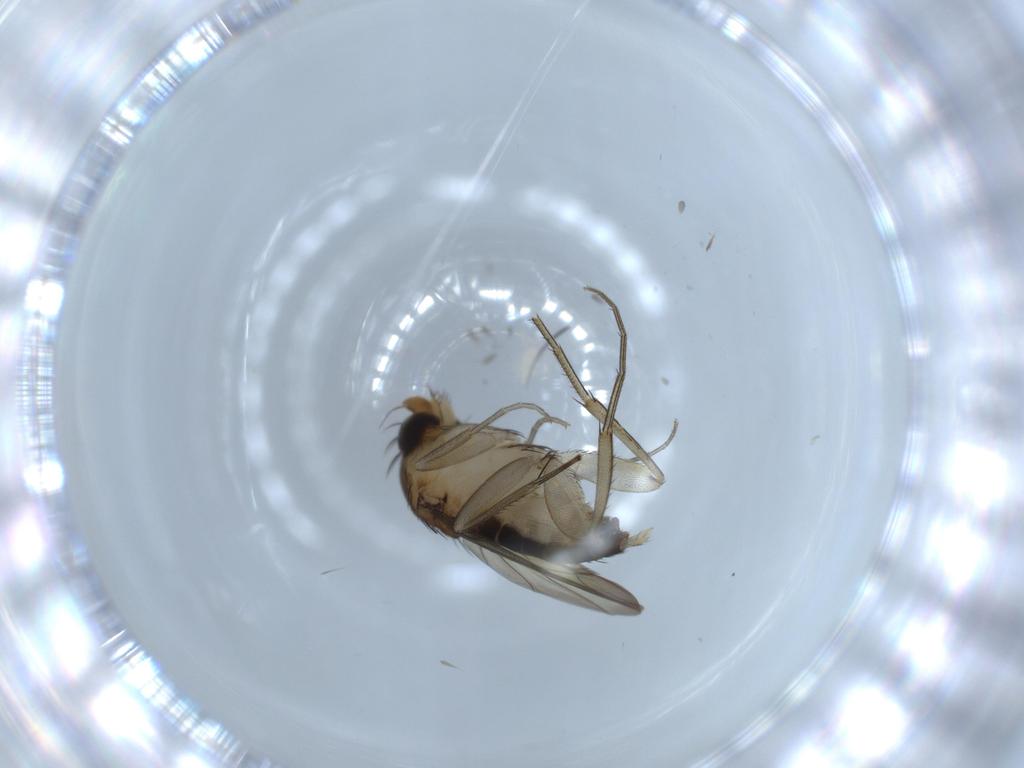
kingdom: Animalia
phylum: Arthropoda
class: Insecta
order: Diptera
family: Phoridae
